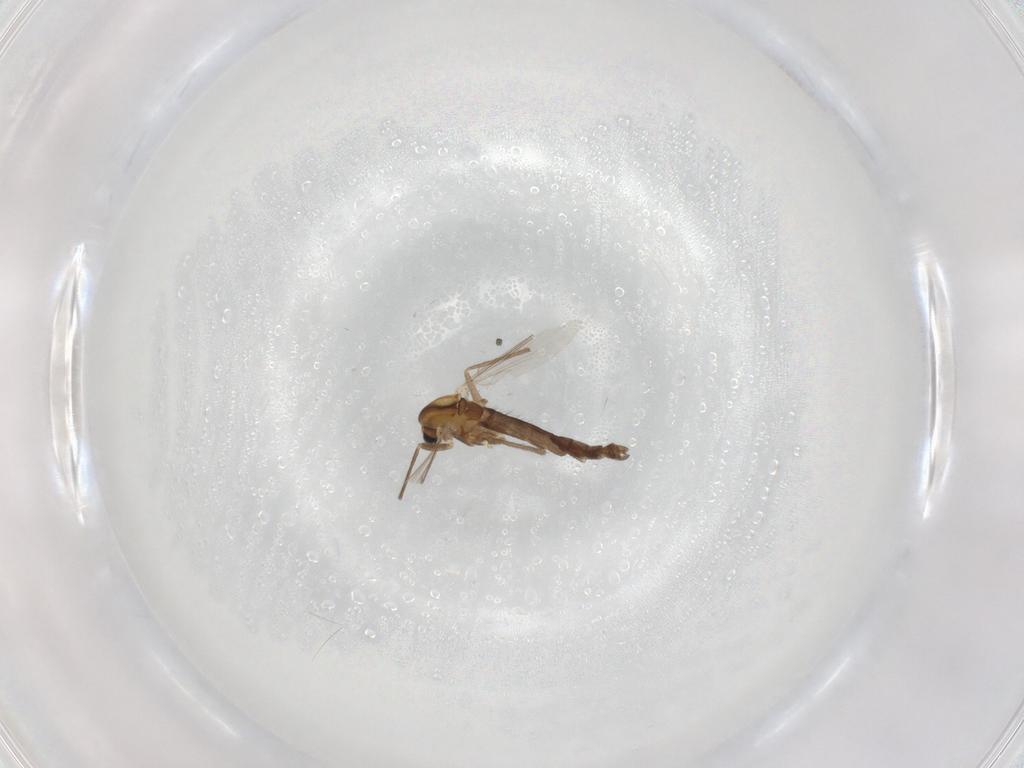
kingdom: Animalia
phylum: Arthropoda
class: Insecta
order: Diptera
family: Chironomidae
